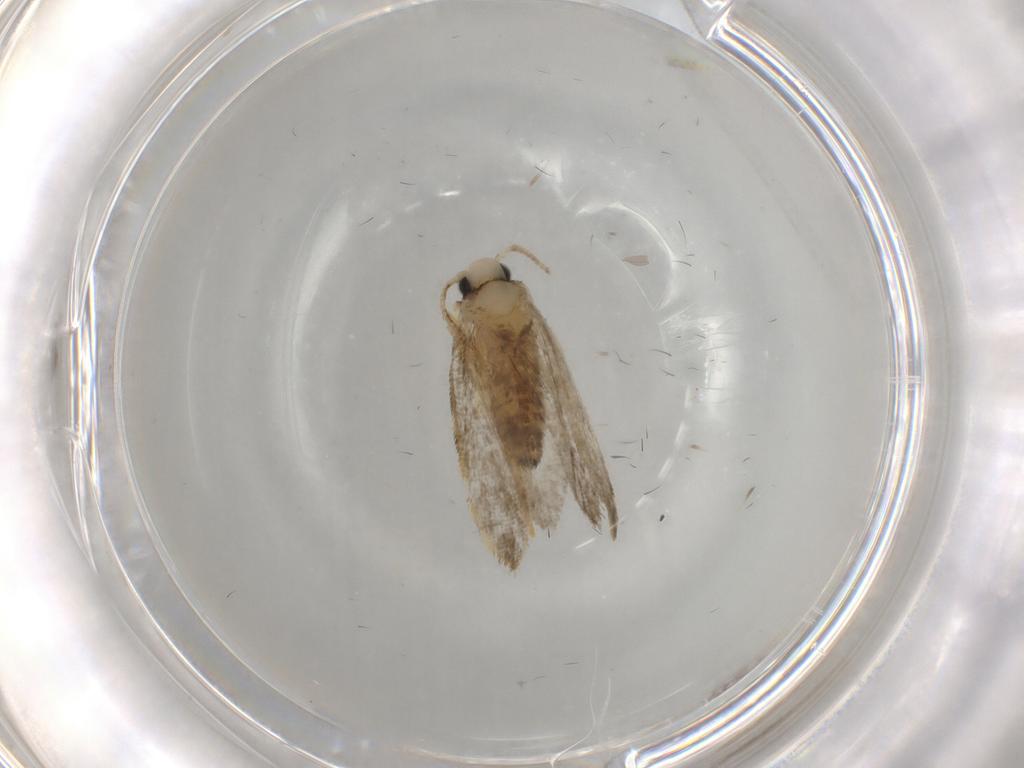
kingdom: Animalia
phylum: Arthropoda
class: Insecta
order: Lepidoptera
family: Psychidae
